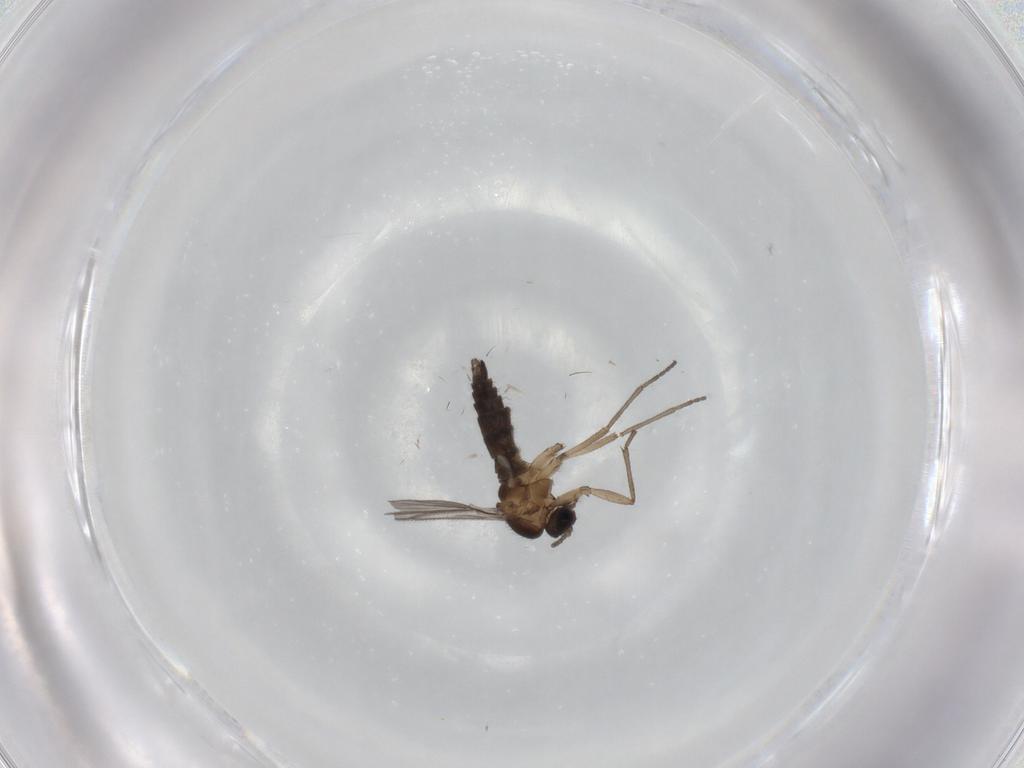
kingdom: Animalia
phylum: Arthropoda
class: Insecta
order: Diptera
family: Sciaridae
